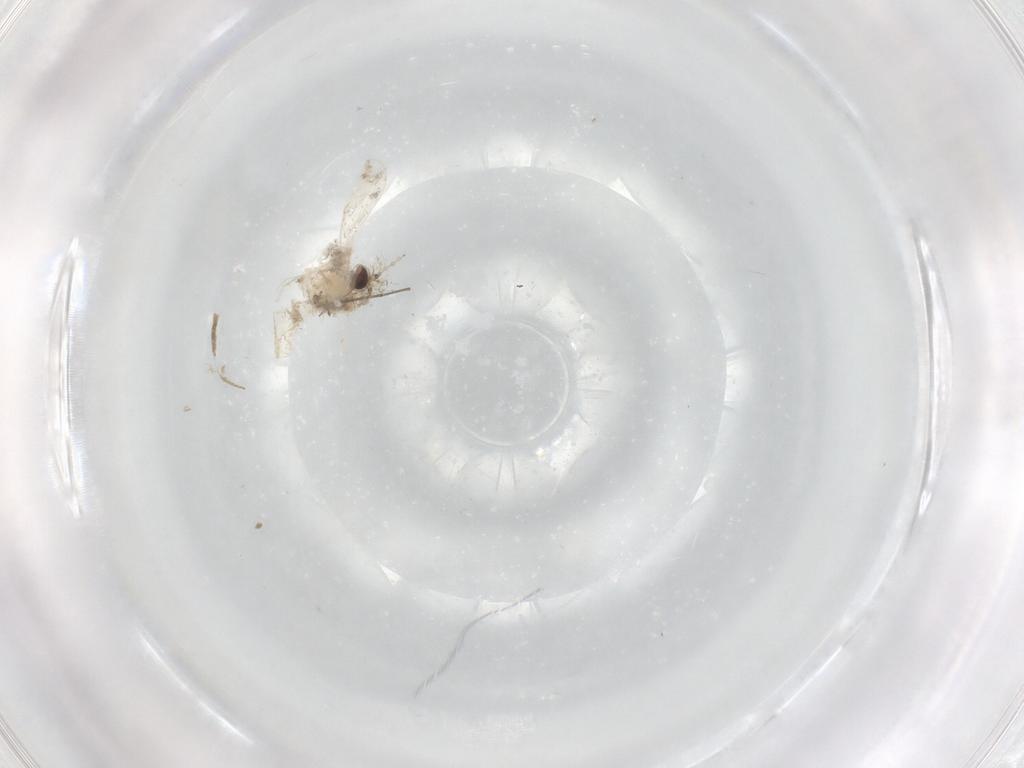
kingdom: Animalia
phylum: Arthropoda
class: Insecta
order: Diptera
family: Cecidomyiidae
